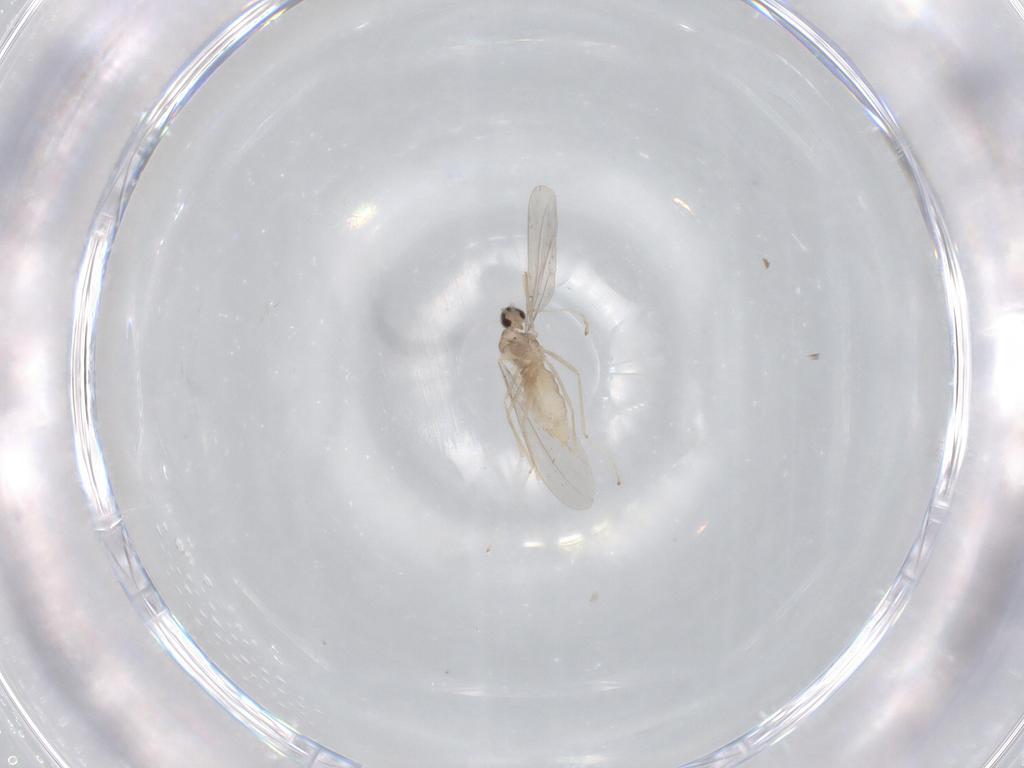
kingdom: Animalia
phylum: Arthropoda
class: Insecta
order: Diptera
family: Cecidomyiidae
